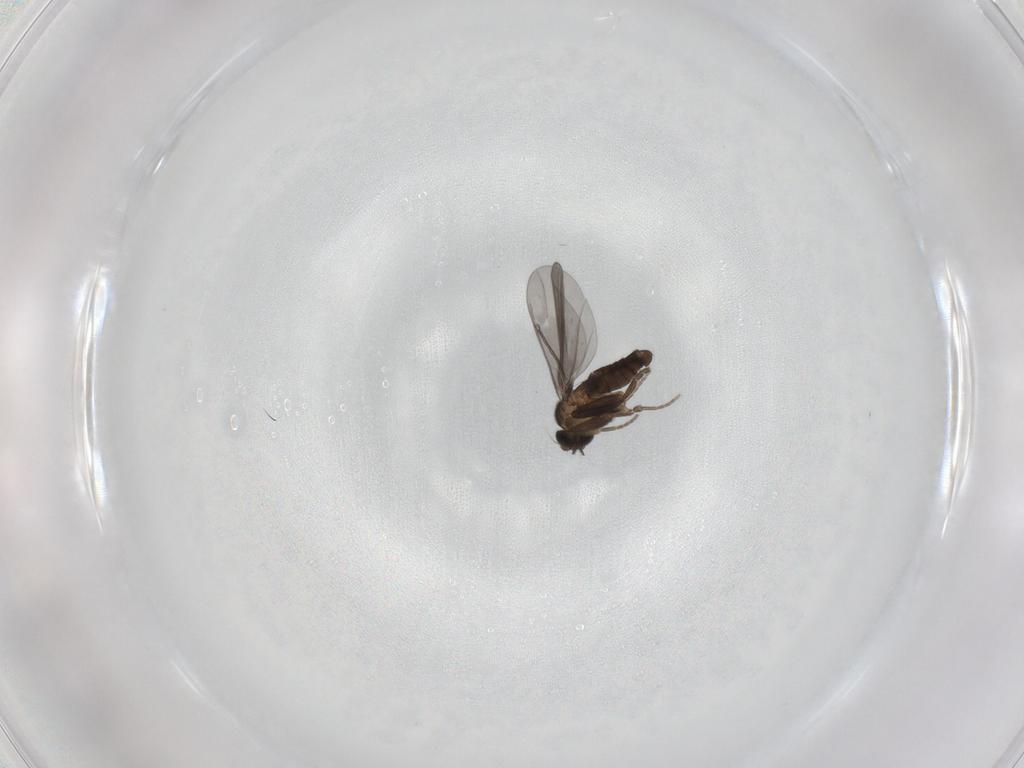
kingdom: Animalia
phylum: Arthropoda
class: Insecta
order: Diptera
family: Phoridae
